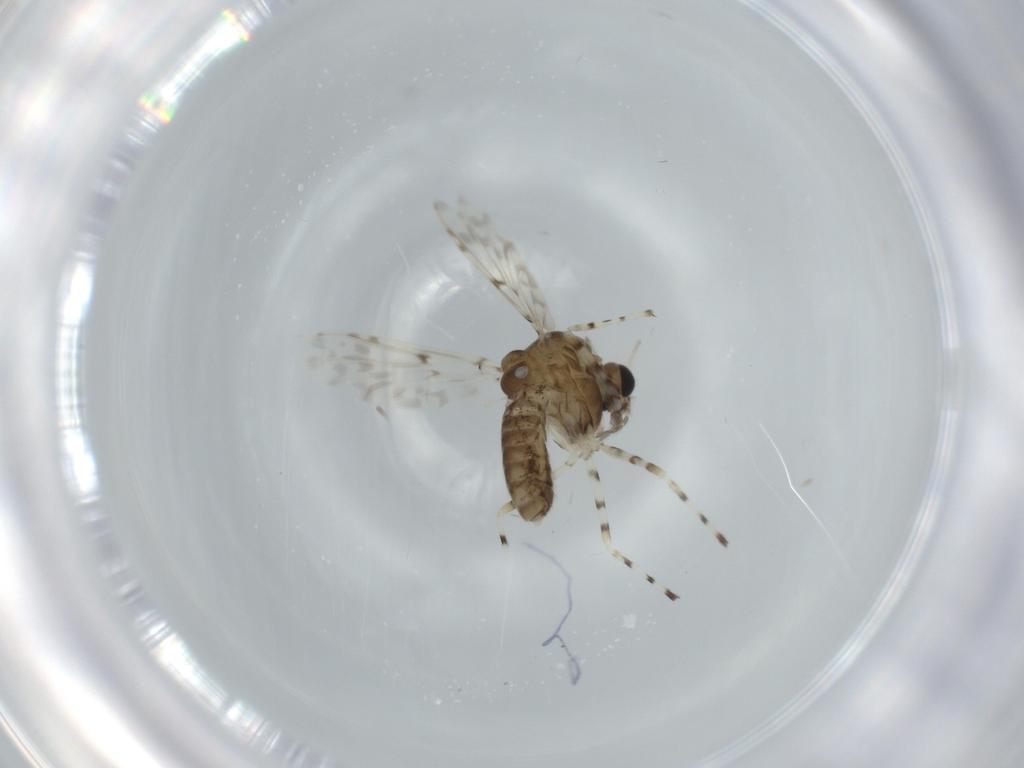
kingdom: Animalia
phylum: Arthropoda
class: Insecta
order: Diptera
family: Chironomidae
